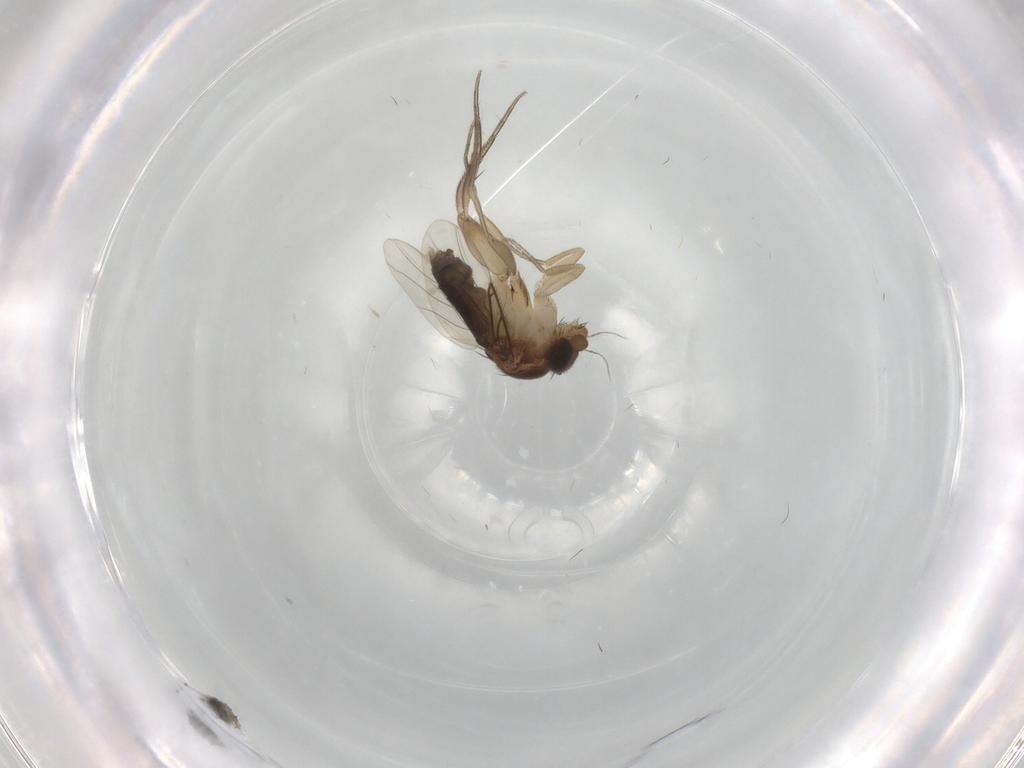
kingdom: Animalia
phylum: Arthropoda
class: Insecta
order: Diptera
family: Phoridae
